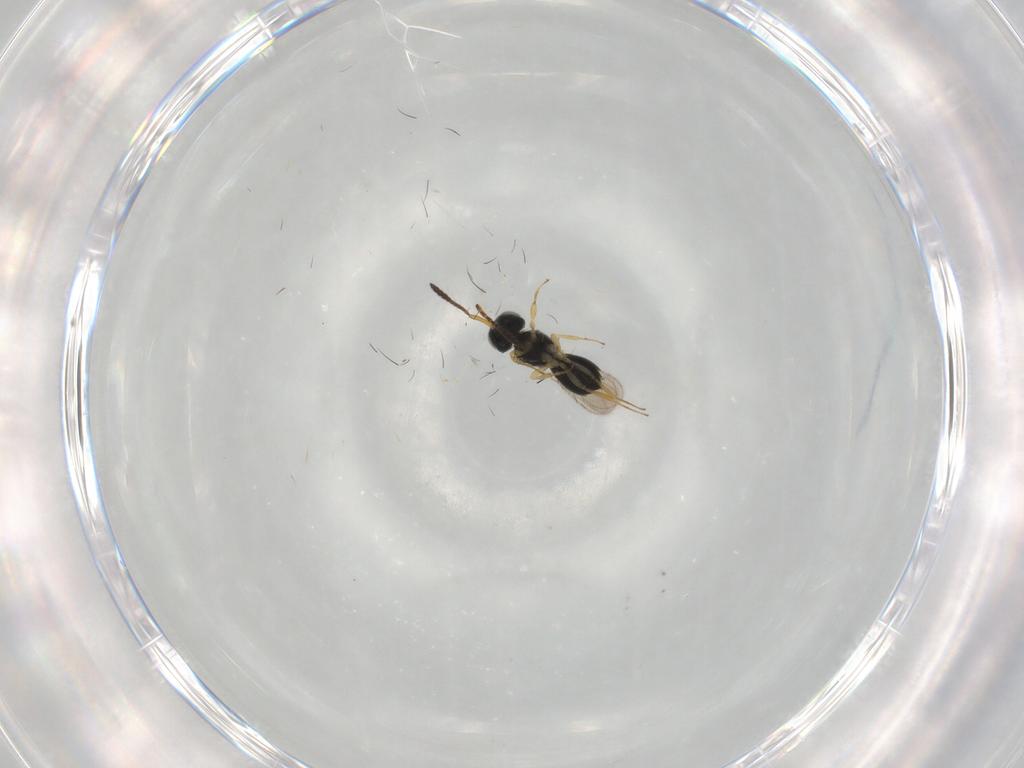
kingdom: Animalia
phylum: Arthropoda
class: Insecta
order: Hymenoptera
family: Scelionidae
